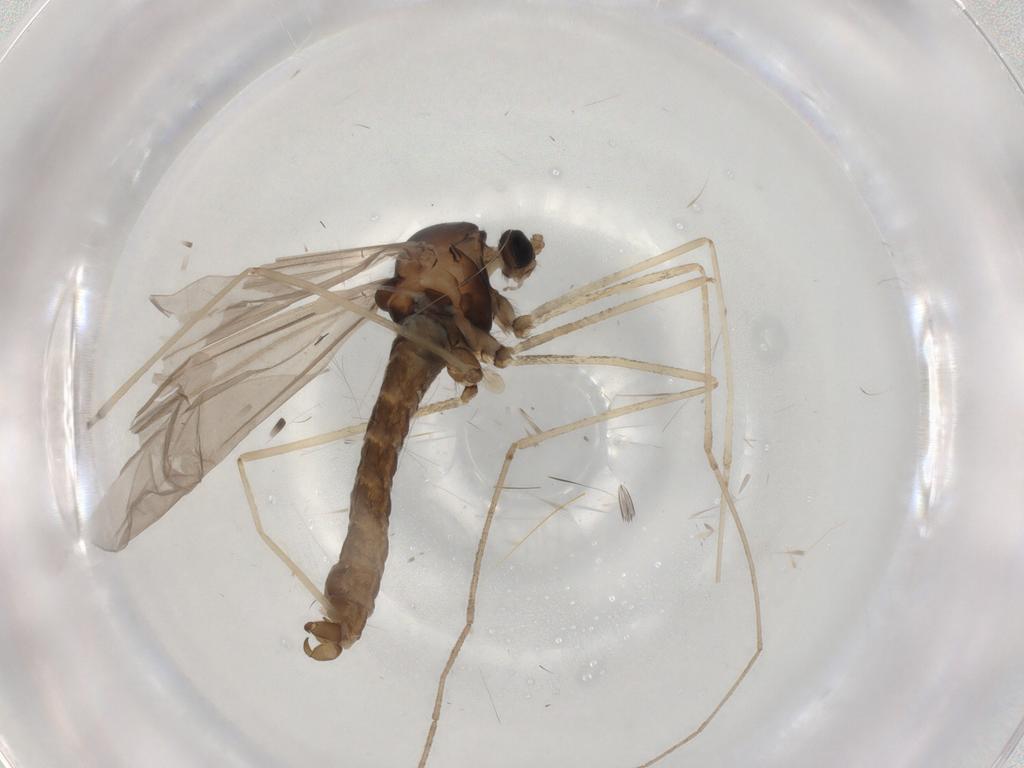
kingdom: Animalia
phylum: Arthropoda
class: Insecta
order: Diptera
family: Cecidomyiidae
